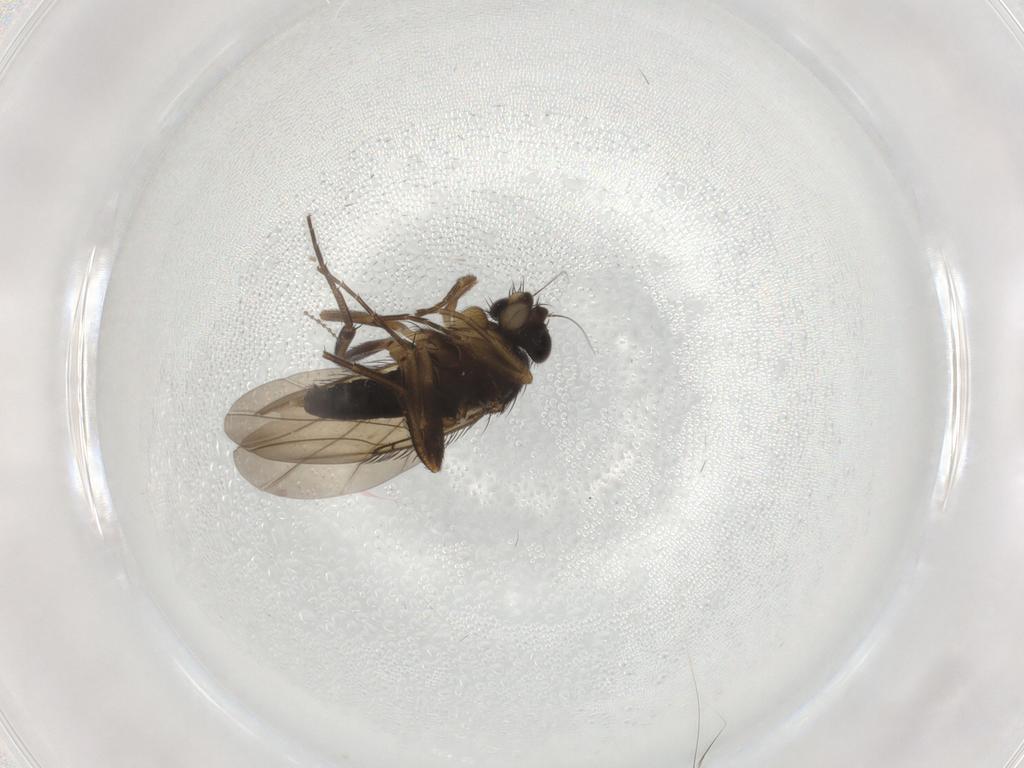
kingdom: Animalia
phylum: Arthropoda
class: Insecta
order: Diptera
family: Phoridae
